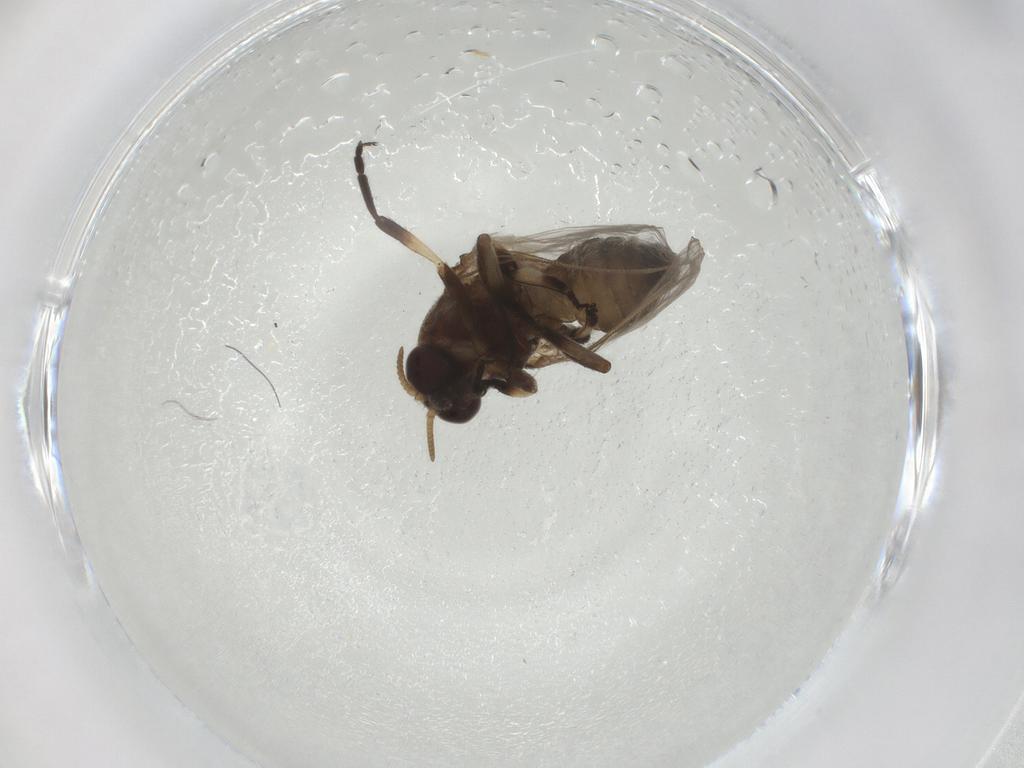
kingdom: Animalia
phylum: Arthropoda
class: Insecta
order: Diptera
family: Simuliidae
